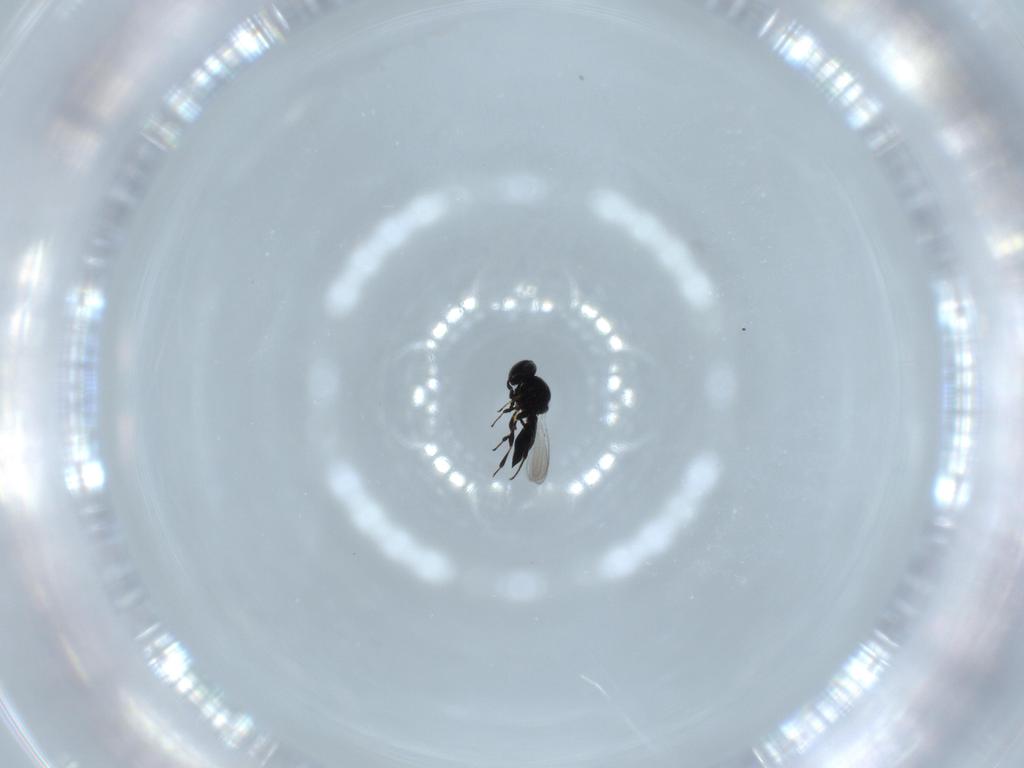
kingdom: Animalia
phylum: Arthropoda
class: Insecta
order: Hymenoptera
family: Platygastridae
